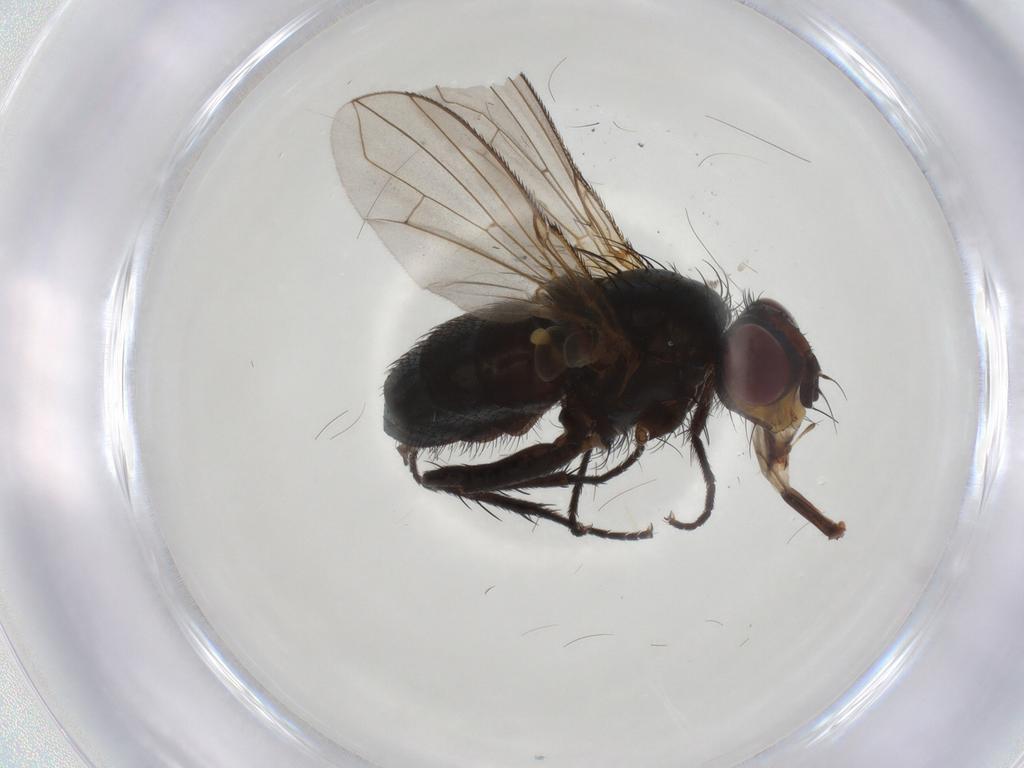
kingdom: Animalia
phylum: Arthropoda
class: Insecta
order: Diptera
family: Calliphoridae
